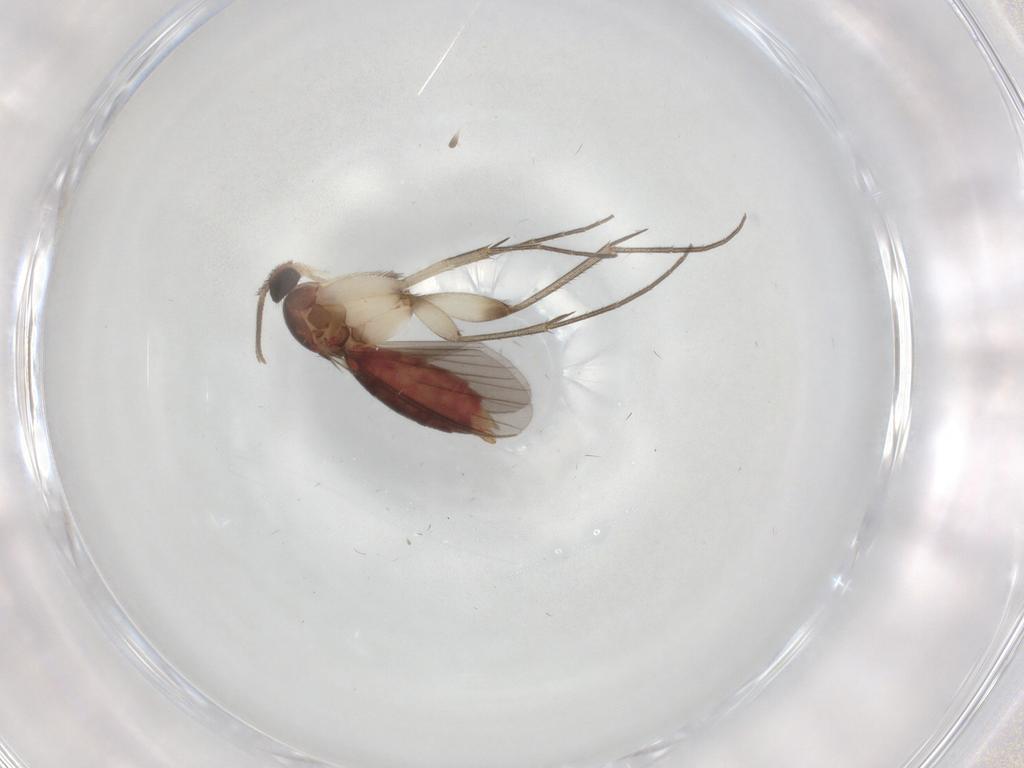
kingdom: Animalia
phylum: Arthropoda
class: Insecta
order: Diptera
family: Mycetophilidae
